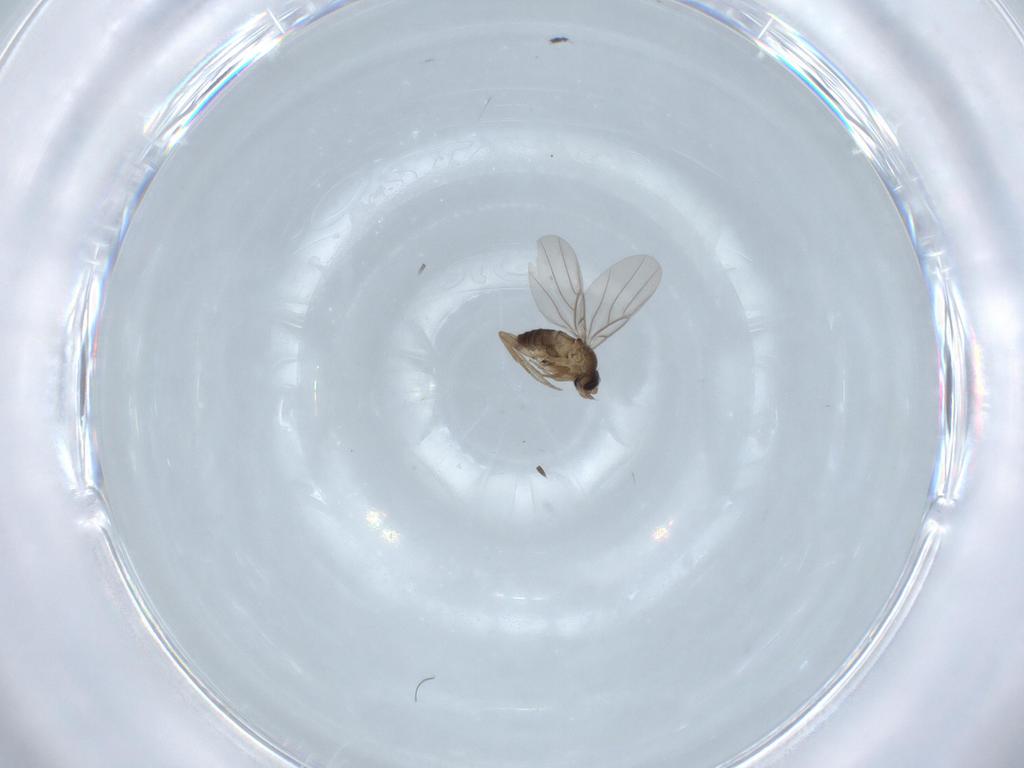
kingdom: Animalia
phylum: Arthropoda
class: Insecta
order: Diptera
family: Phoridae
